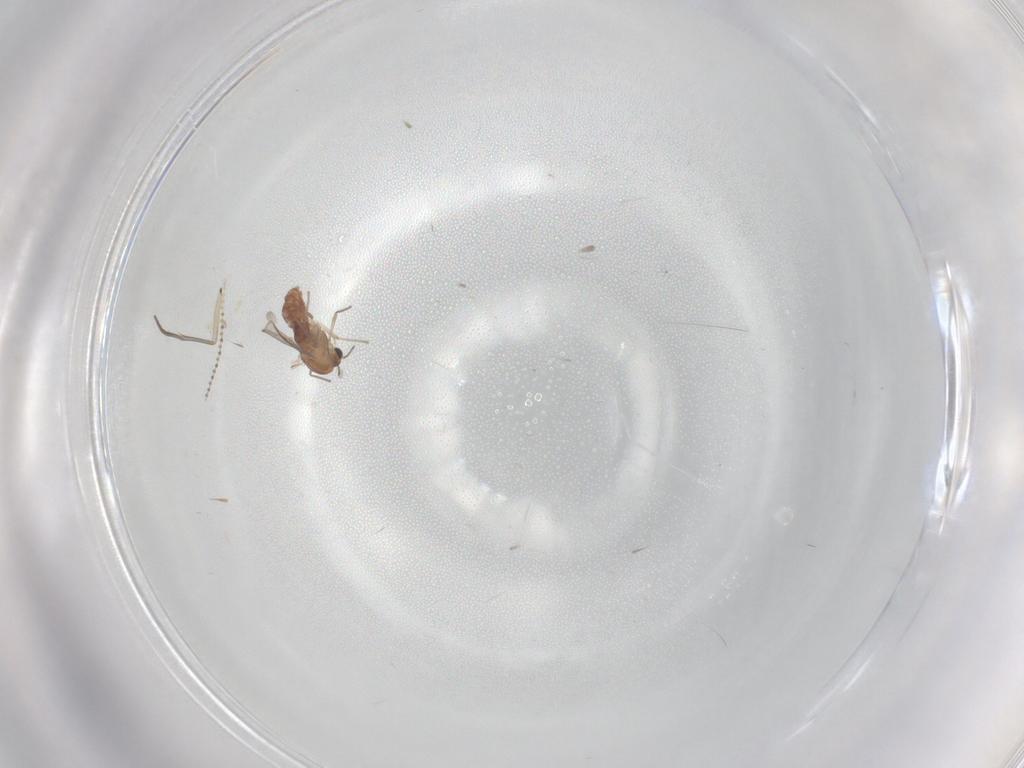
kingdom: Animalia
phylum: Arthropoda
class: Insecta
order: Diptera
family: Chironomidae
